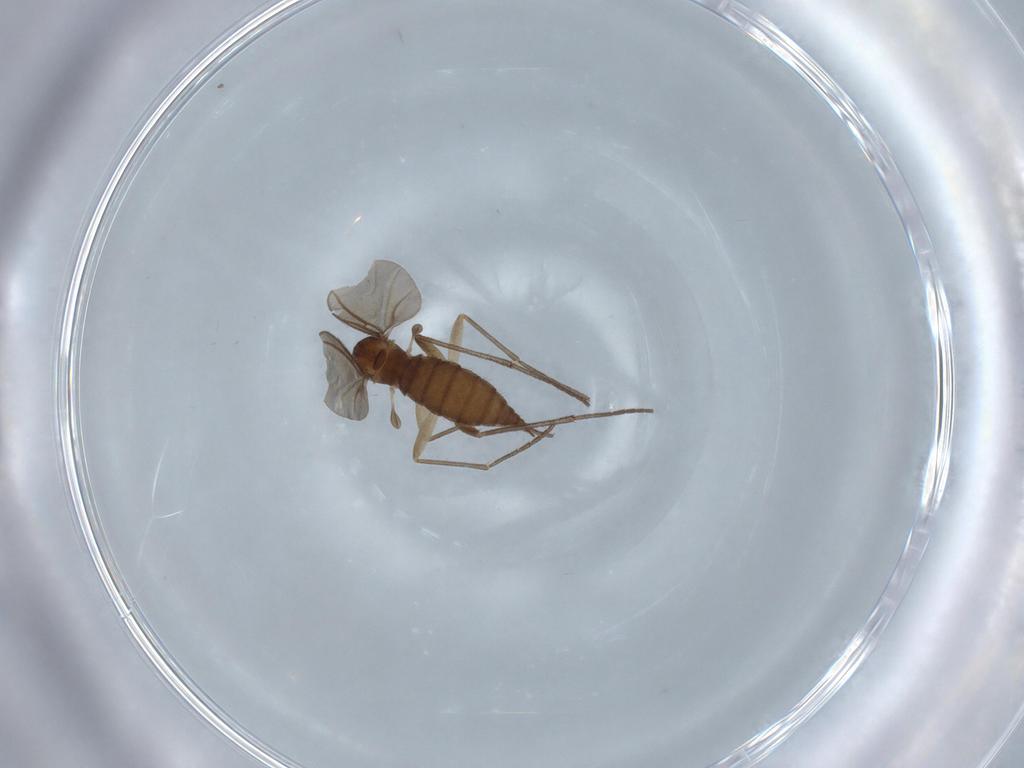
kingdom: Animalia
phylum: Arthropoda
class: Insecta
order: Diptera
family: Sciaridae
